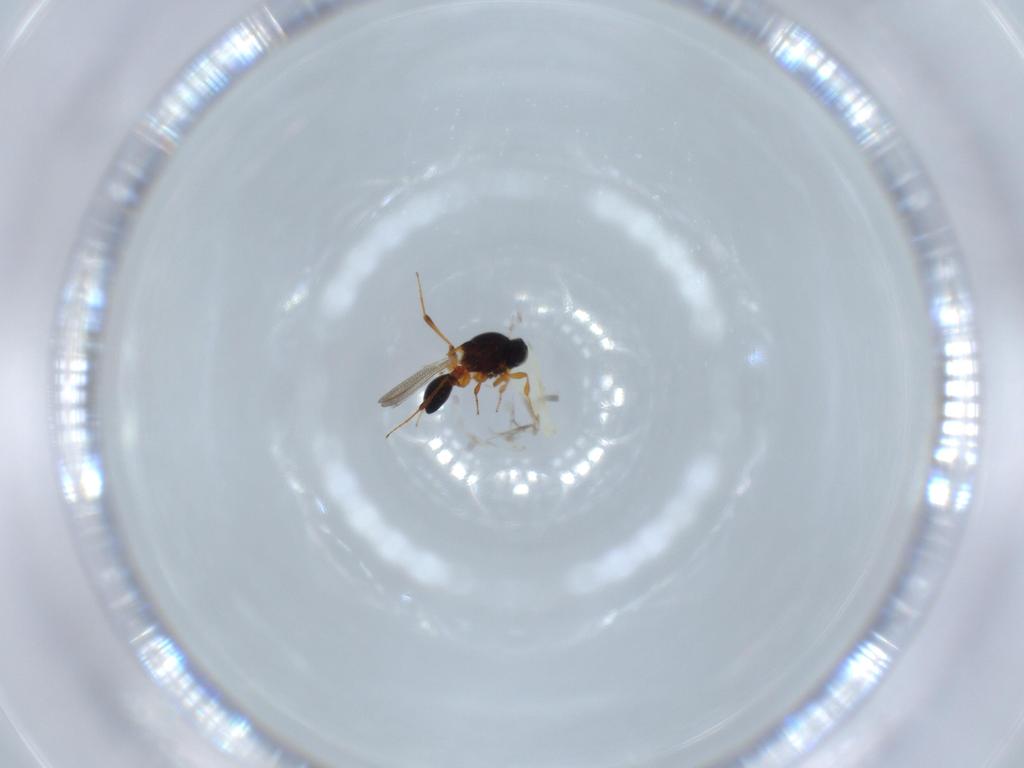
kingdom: Animalia
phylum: Arthropoda
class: Insecta
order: Hymenoptera
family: Platygastridae
